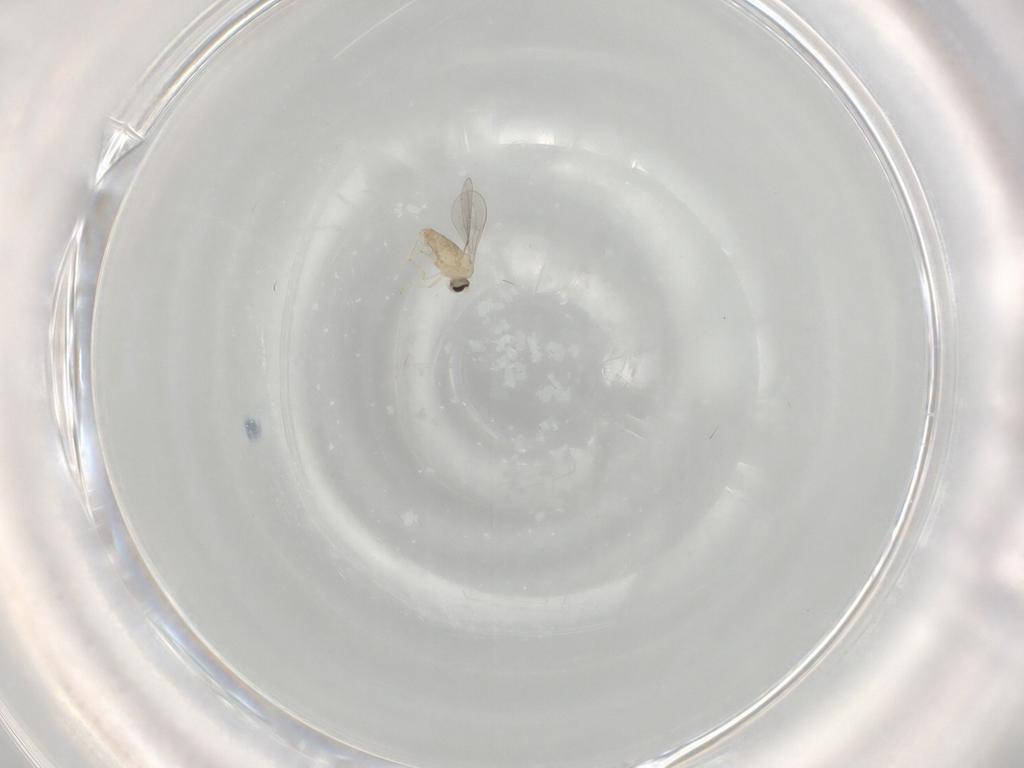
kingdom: Animalia
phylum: Arthropoda
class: Insecta
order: Diptera
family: Cecidomyiidae
